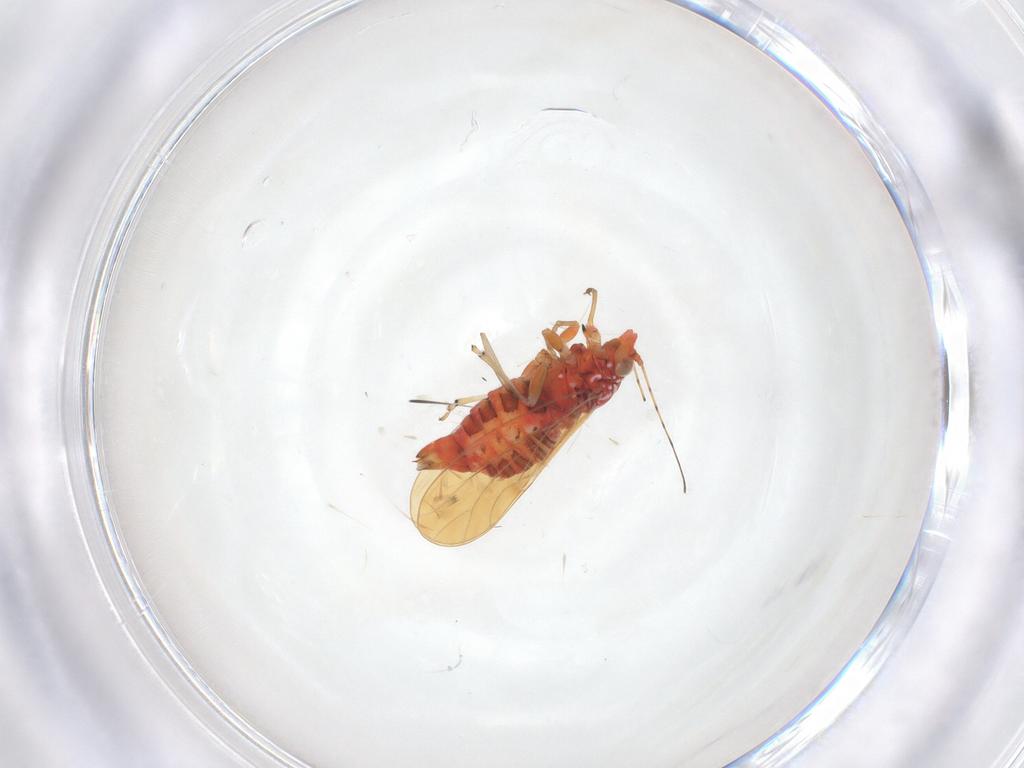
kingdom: Animalia
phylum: Arthropoda
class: Insecta
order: Hemiptera
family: Psyllidae
